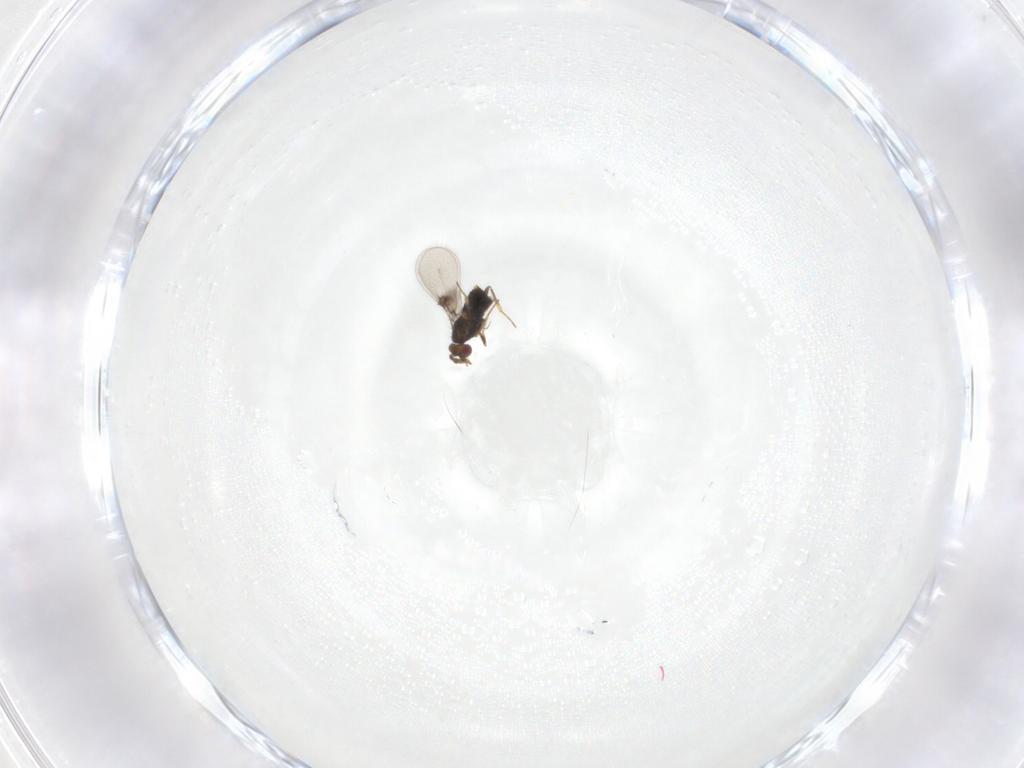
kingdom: Animalia
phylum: Arthropoda
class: Insecta
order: Hymenoptera
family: Trichogrammatidae
